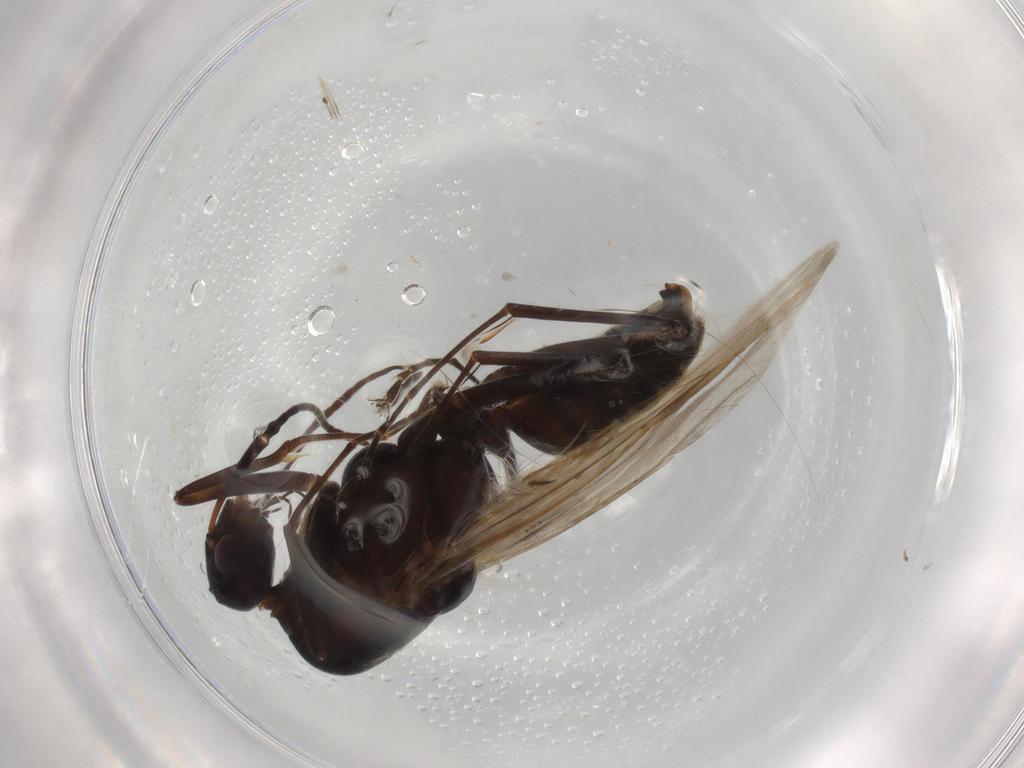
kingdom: Animalia
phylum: Arthropoda
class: Insecta
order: Hymenoptera
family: Formicidae
